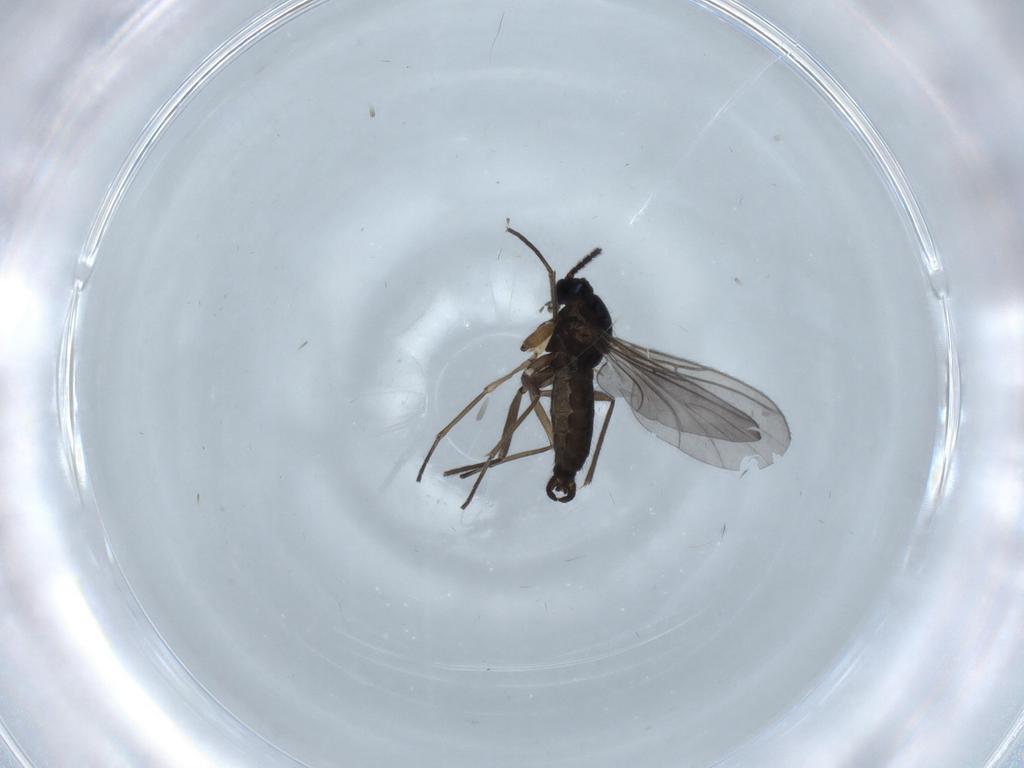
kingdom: Animalia
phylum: Arthropoda
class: Insecta
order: Diptera
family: Sciaridae
